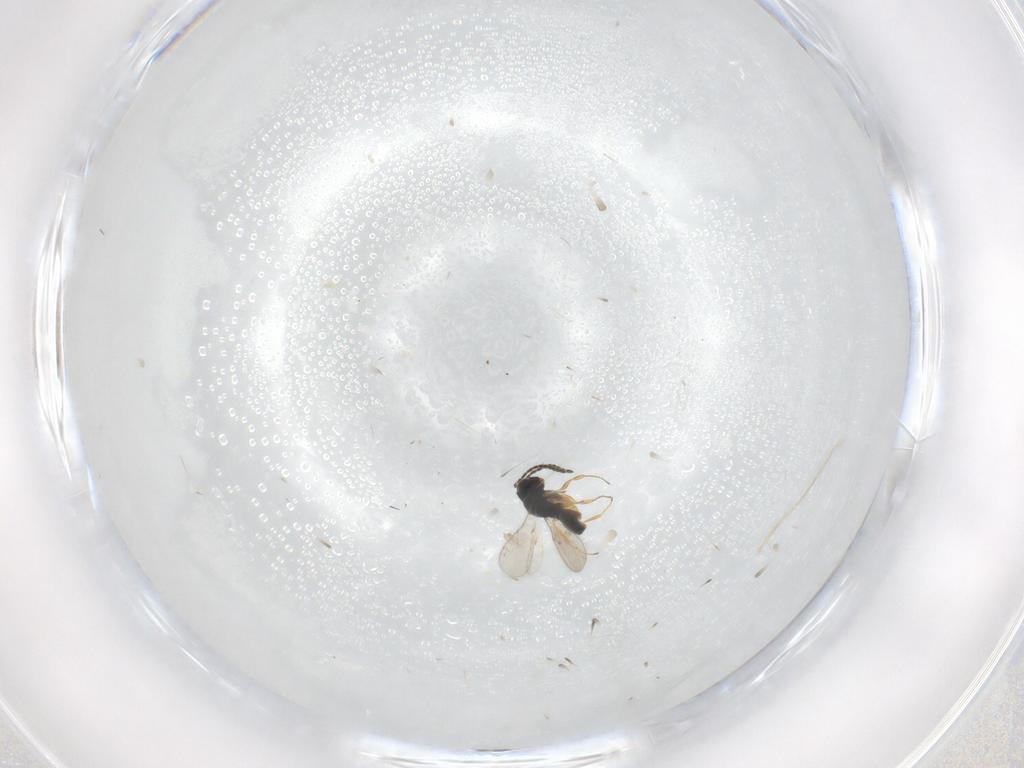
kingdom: Animalia
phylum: Arthropoda
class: Insecta
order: Hymenoptera
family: Scelionidae
